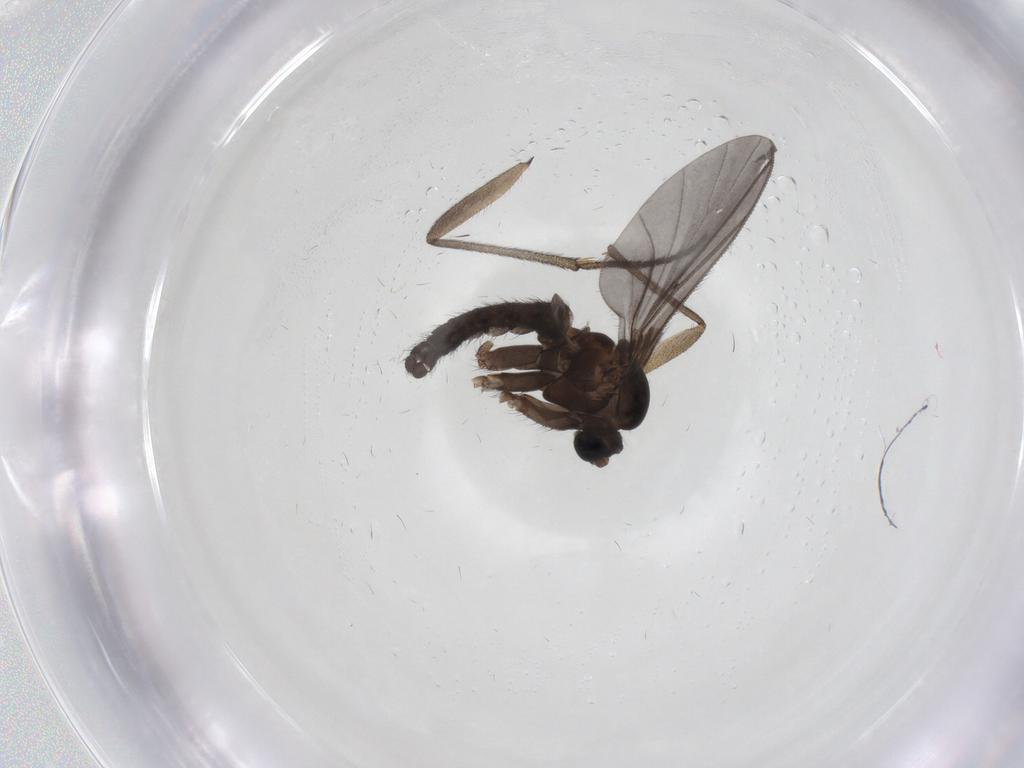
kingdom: Animalia
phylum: Arthropoda
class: Insecta
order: Diptera
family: Sciaridae
